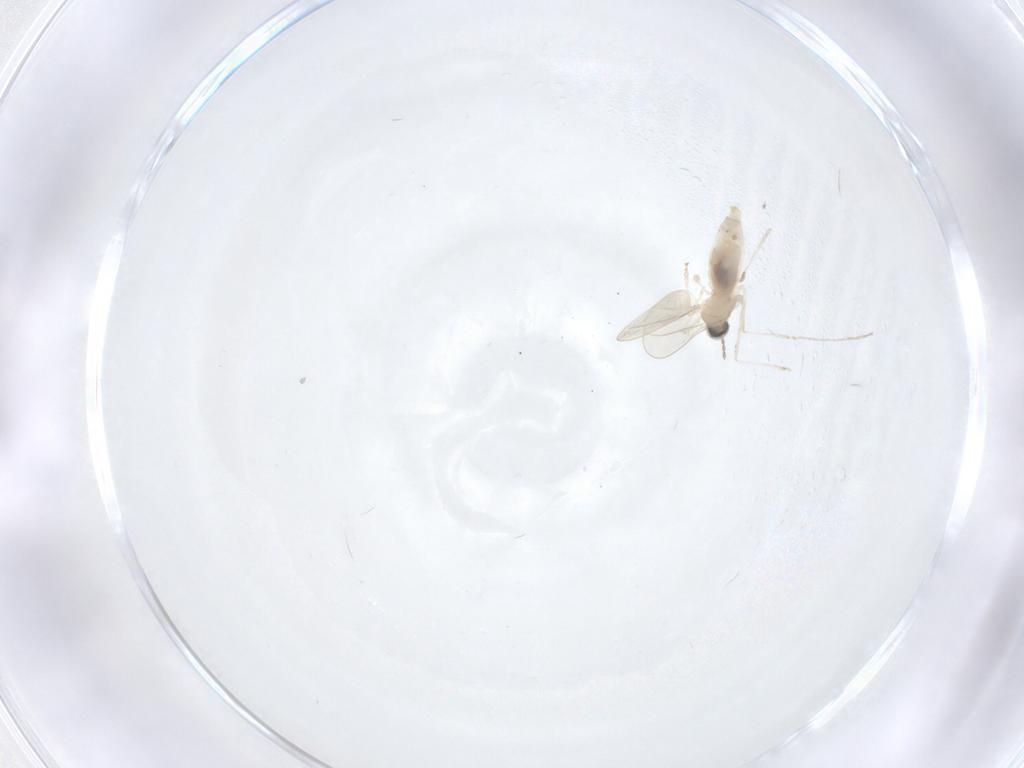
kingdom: Animalia
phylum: Arthropoda
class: Insecta
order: Diptera
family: Cecidomyiidae
